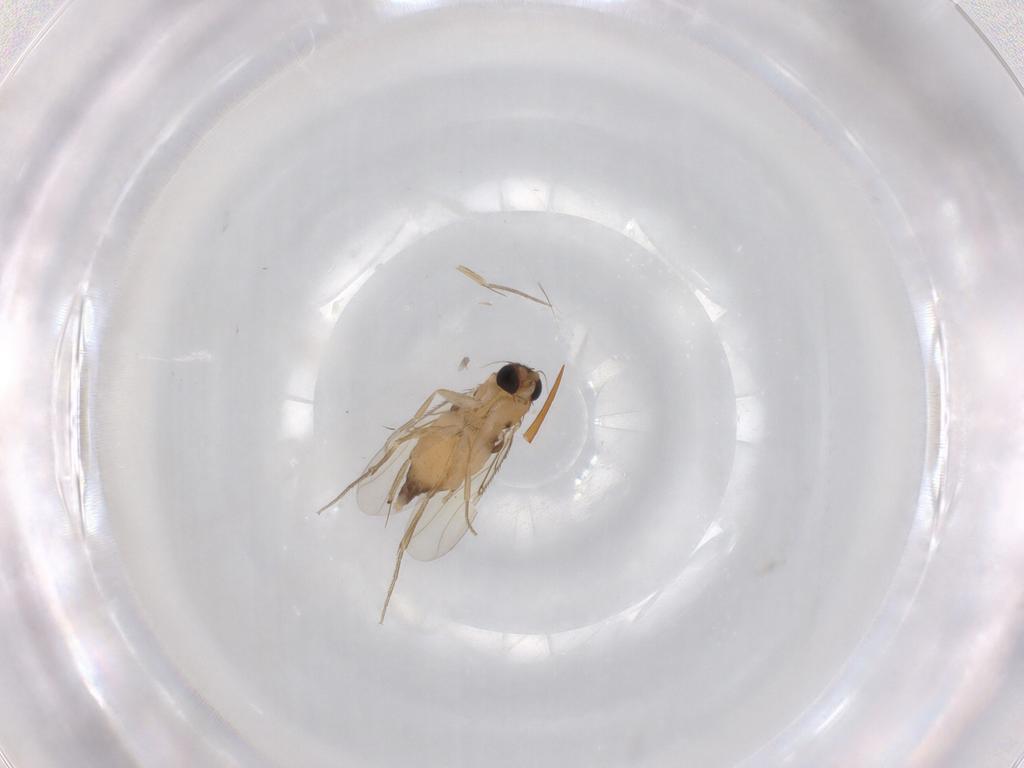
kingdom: Animalia
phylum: Arthropoda
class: Insecta
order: Diptera
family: Phoridae
